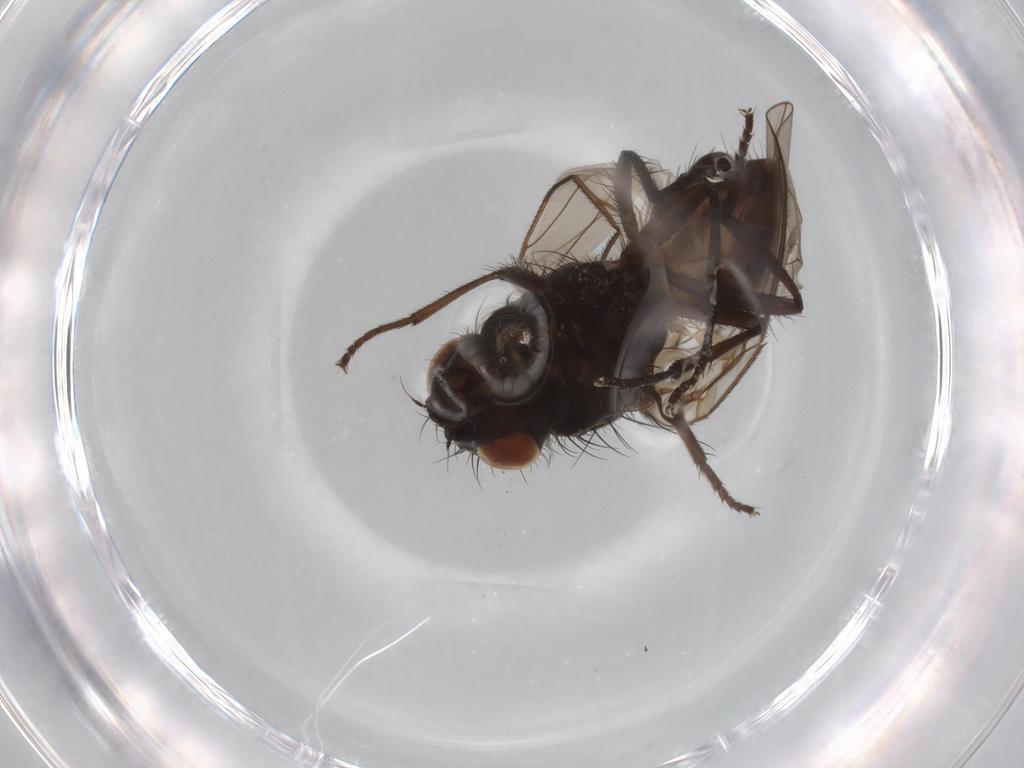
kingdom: Animalia
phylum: Arthropoda
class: Insecta
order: Diptera
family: Anthomyiidae
